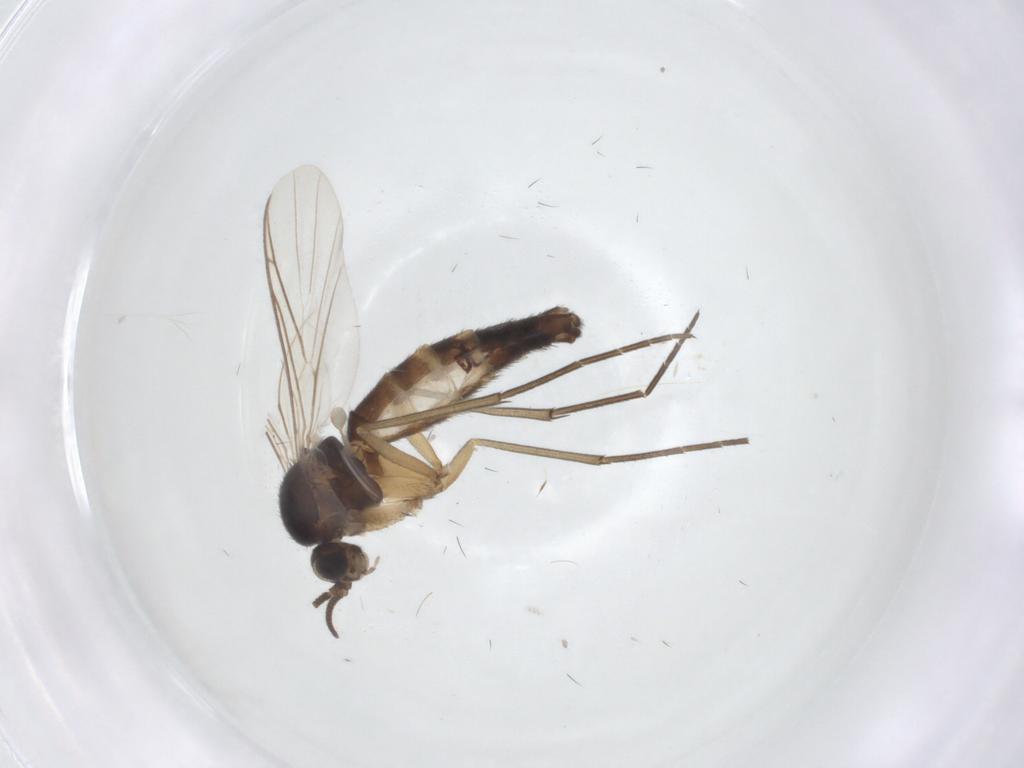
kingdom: Animalia
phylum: Arthropoda
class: Insecta
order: Diptera
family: Keroplatidae
